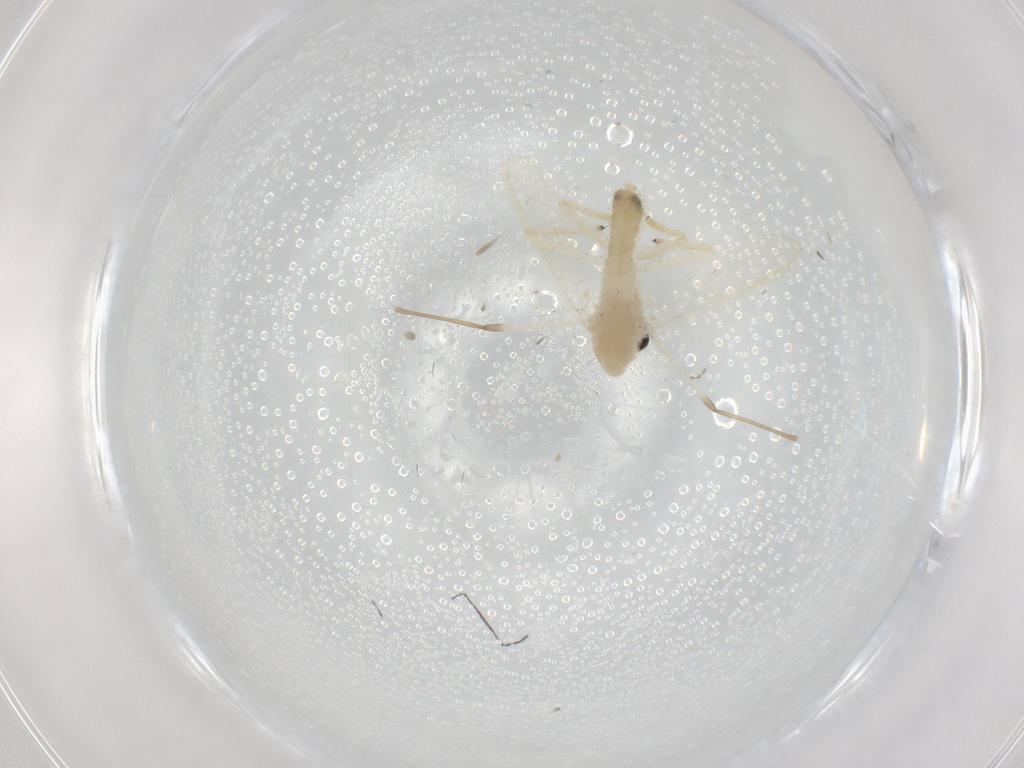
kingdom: Animalia
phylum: Arthropoda
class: Insecta
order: Diptera
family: Chironomidae
